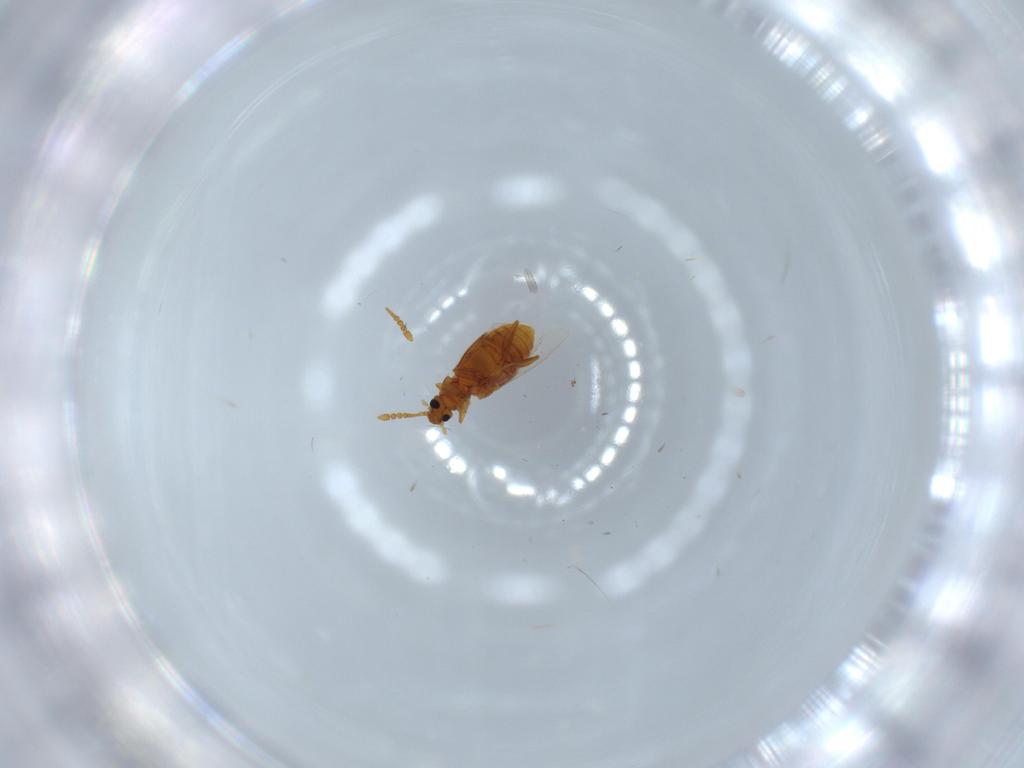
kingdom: Animalia
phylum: Arthropoda
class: Insecta
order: Coleoptera
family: Staphylinidae
